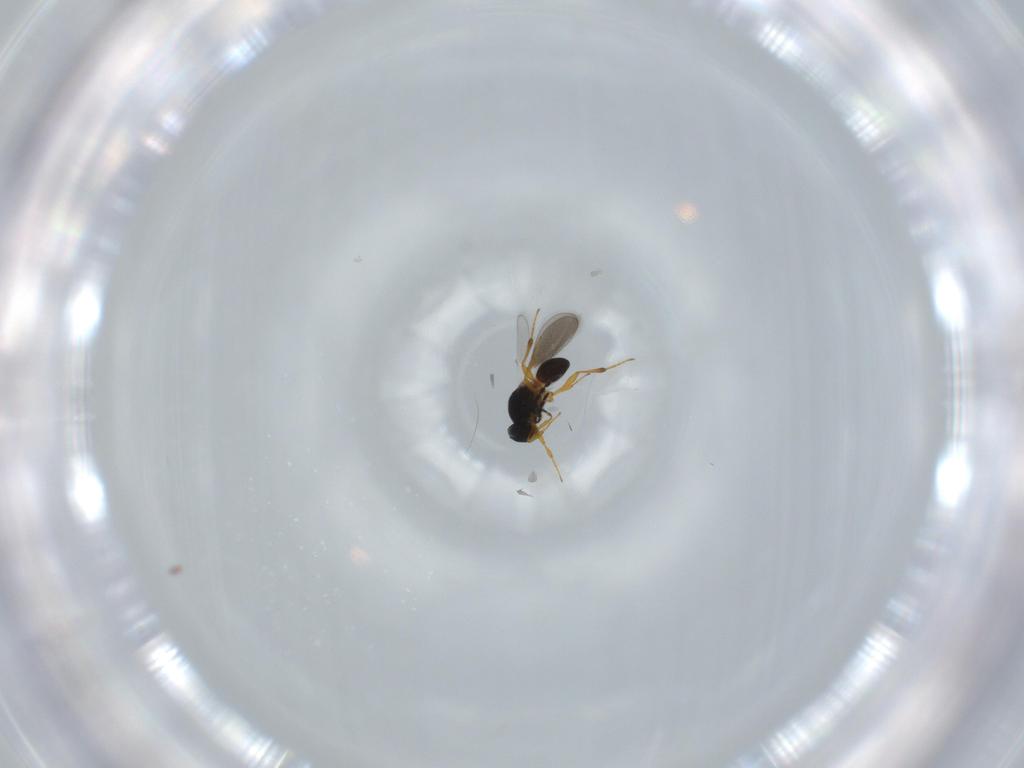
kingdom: Animalia
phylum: Arthropoda
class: Insecta
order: Hymenoptera
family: Platygastridae
